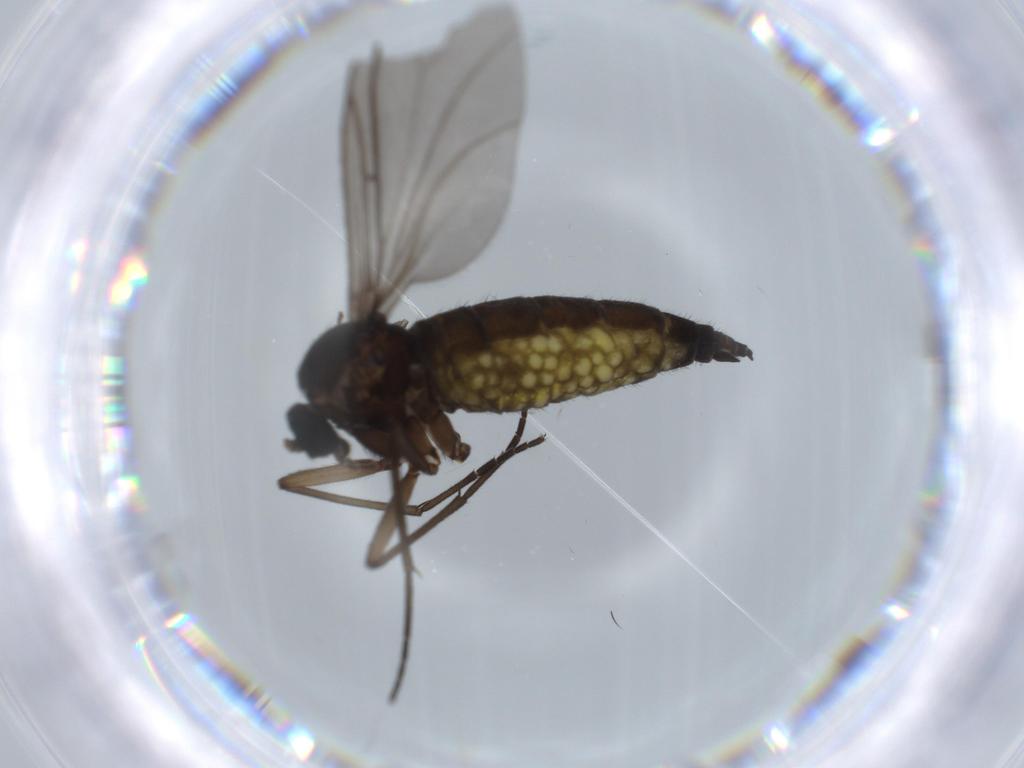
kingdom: Animalia
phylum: Arthropoda
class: Insecta
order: Diptera
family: Sciaridae
